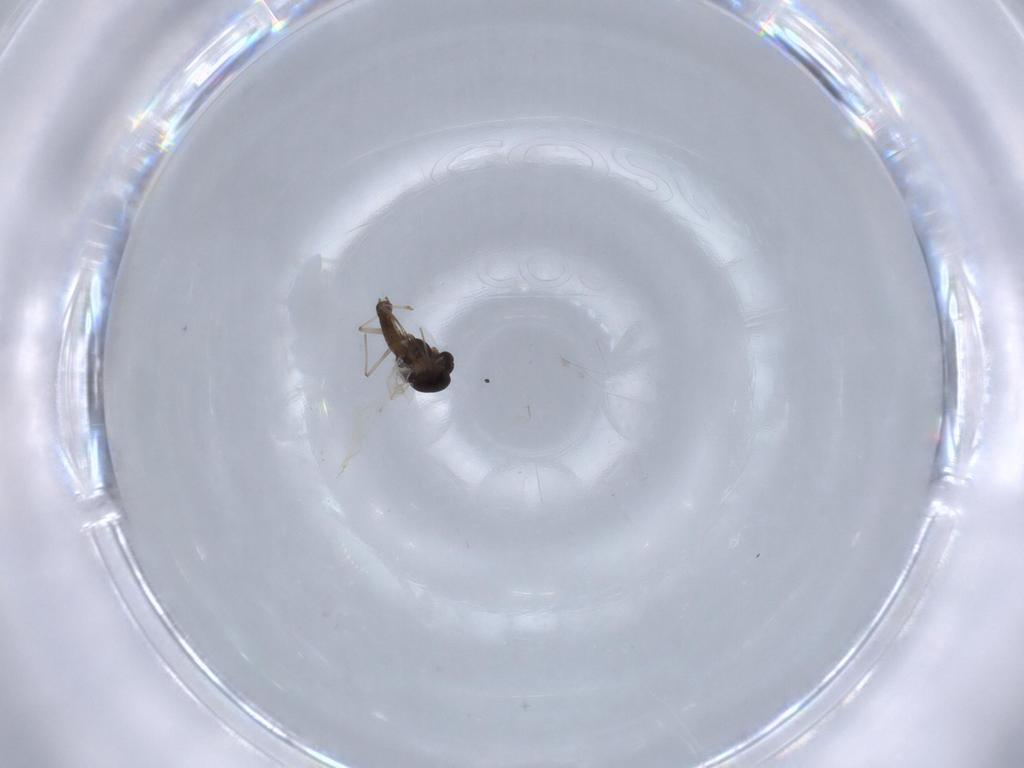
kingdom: Animalia
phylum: Arthropoda
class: Insecta
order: Diptera
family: Chironomidae
